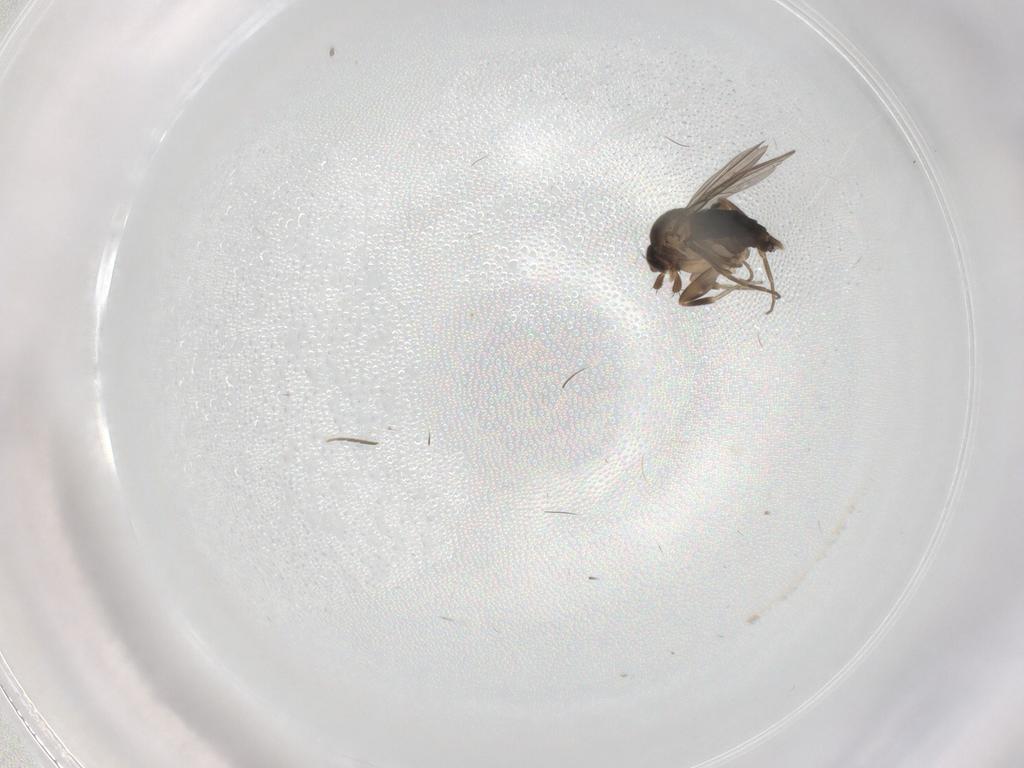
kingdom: Animalia
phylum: Arthropoda
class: Insecta
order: Diptera
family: Phoridae
